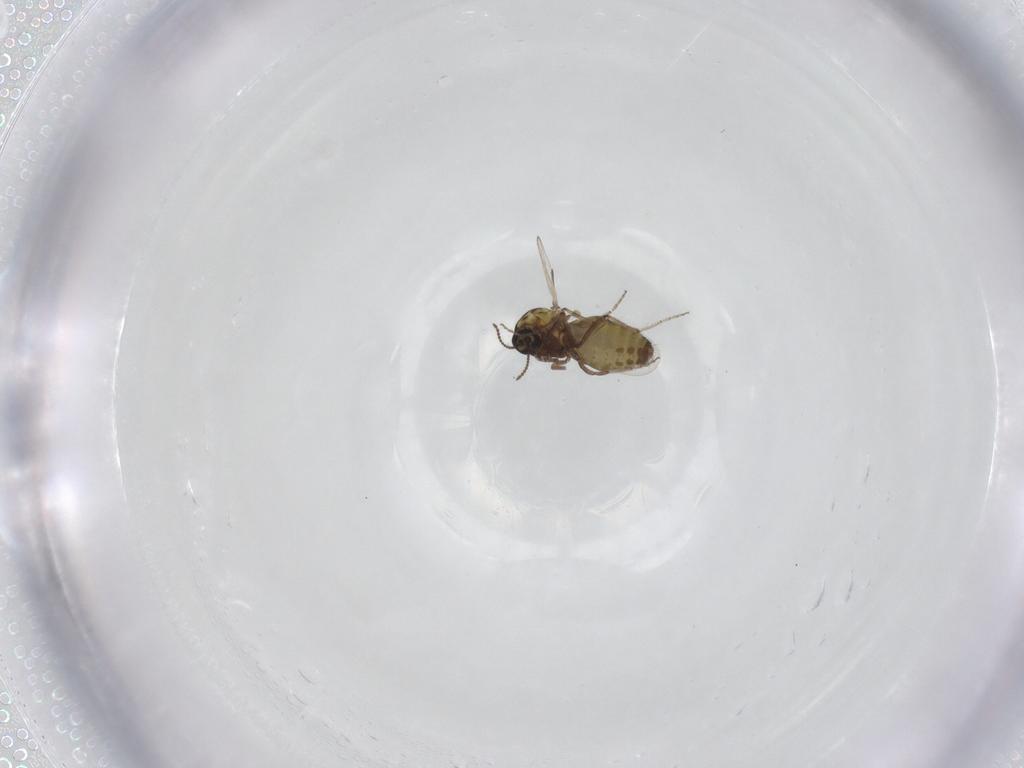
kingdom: Animalia
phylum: Arthropoda
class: Insecta
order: Diptera
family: Ceratopogonidae
